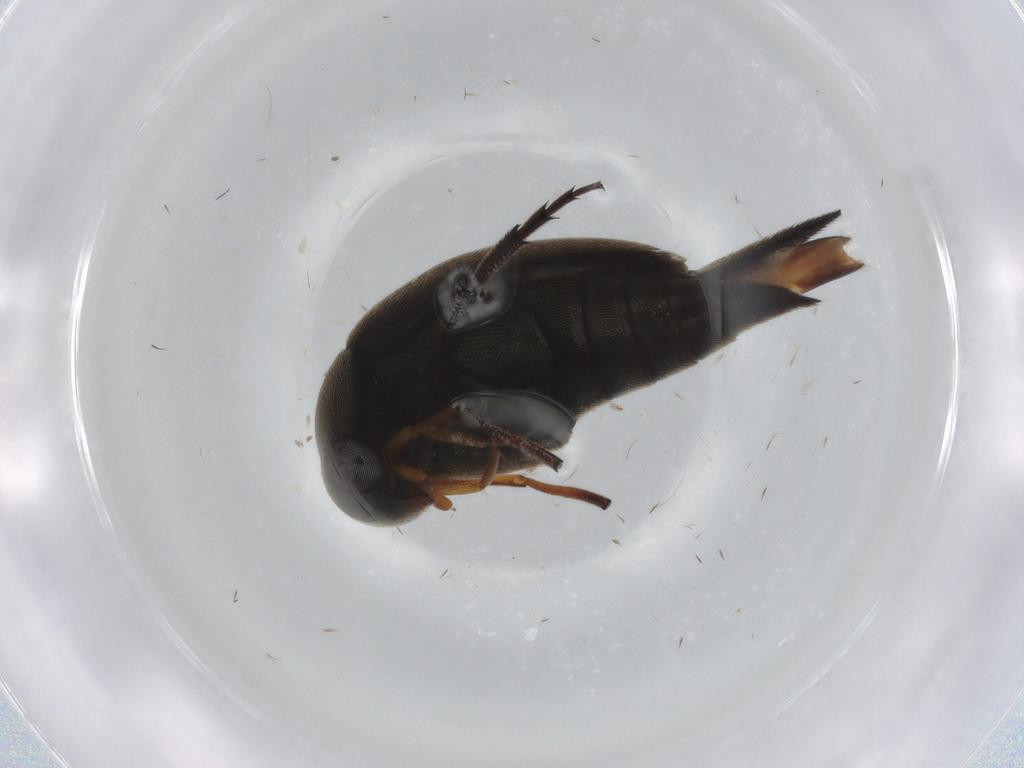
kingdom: Animalia
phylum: Arthropoda
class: Insecta
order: Coleoptera
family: Mordellidae
